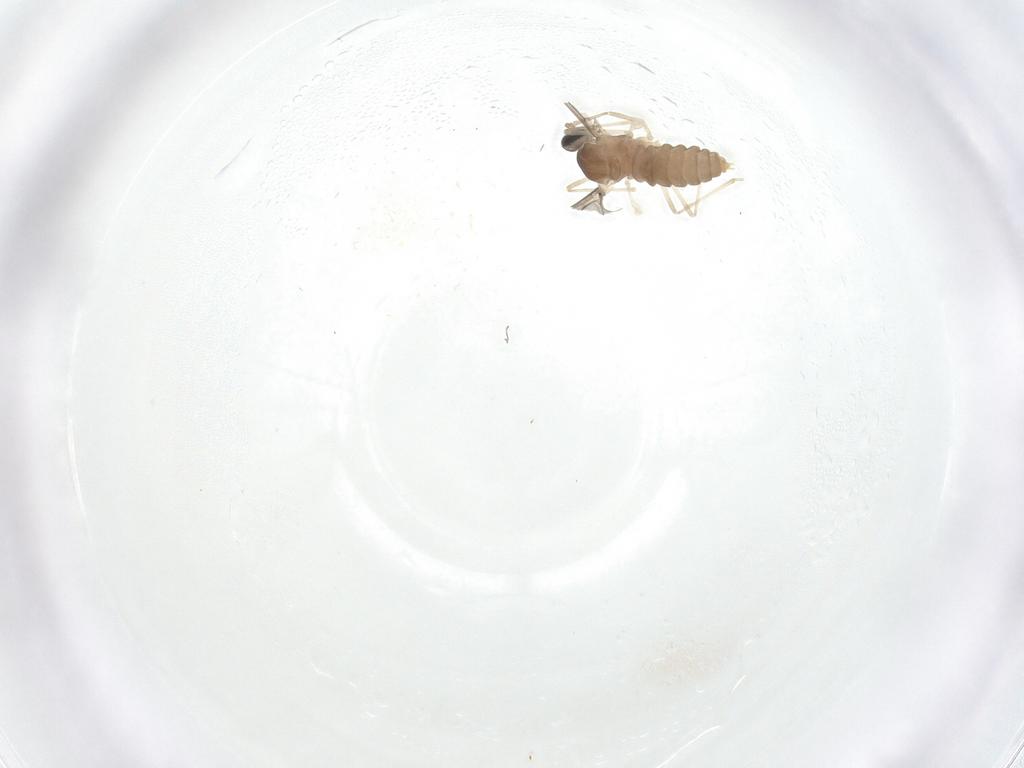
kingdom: Animalia
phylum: Arthropoda
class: Insecta
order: Diptera
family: Cecidomyiidae
